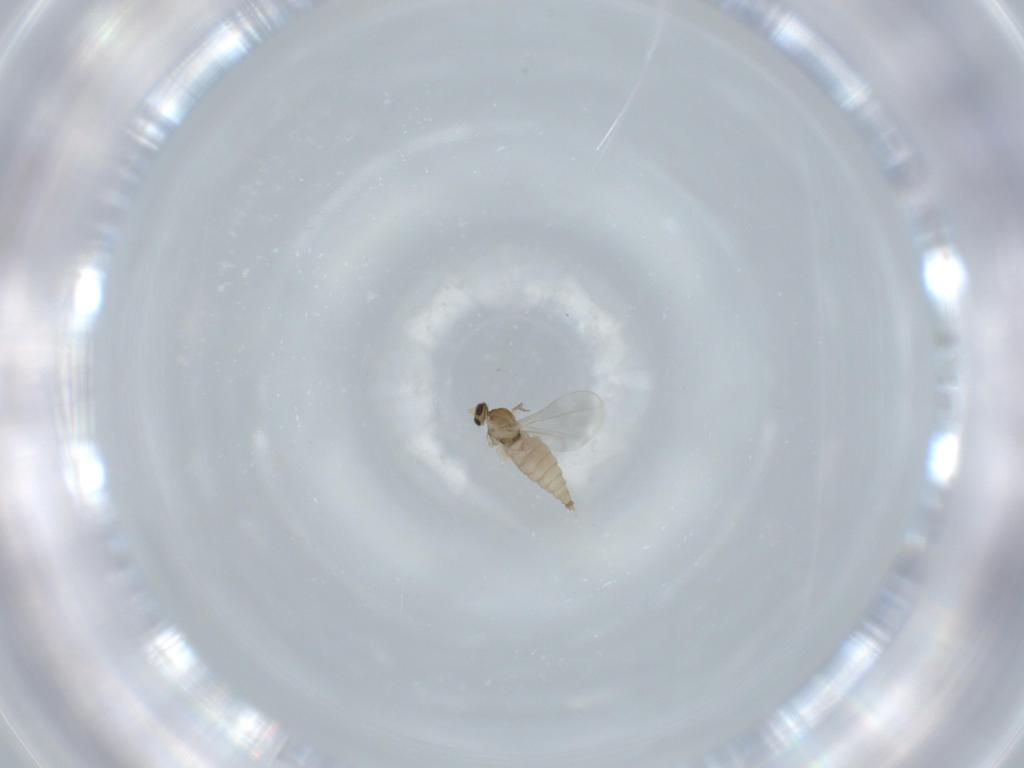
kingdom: Animalia
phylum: Arthropoda
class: Insecta
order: Diptera
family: Cecidomyiidae
